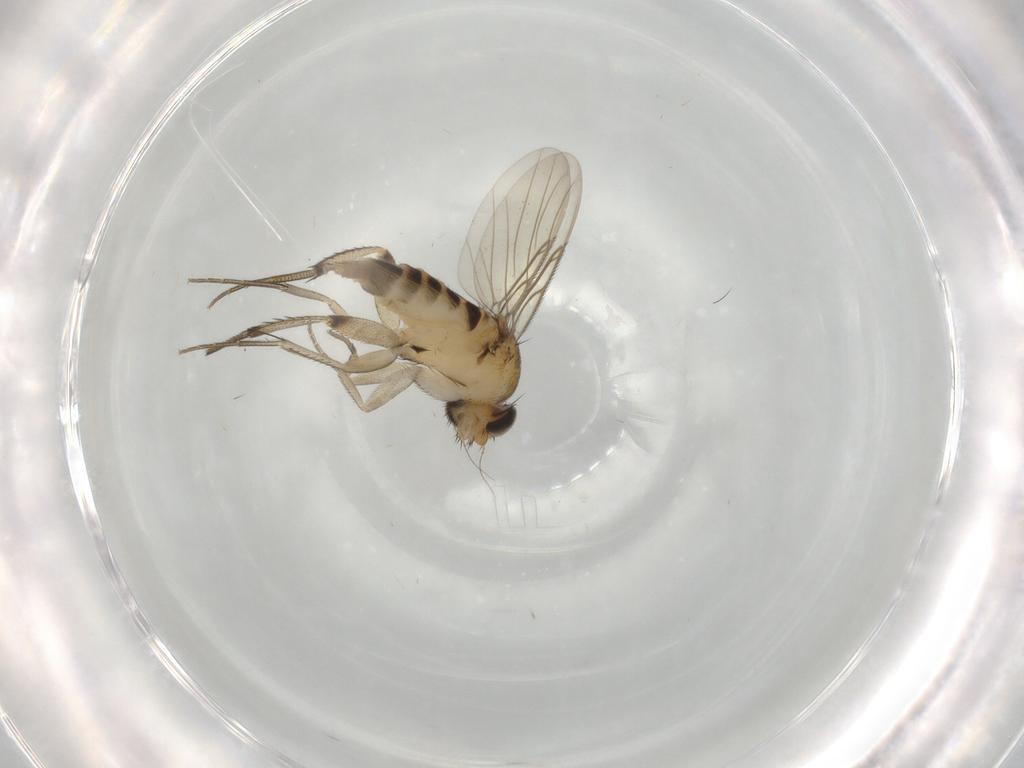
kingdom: Animalia
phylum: Arthropoda
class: Insecta
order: Diptera
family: Phoridae
